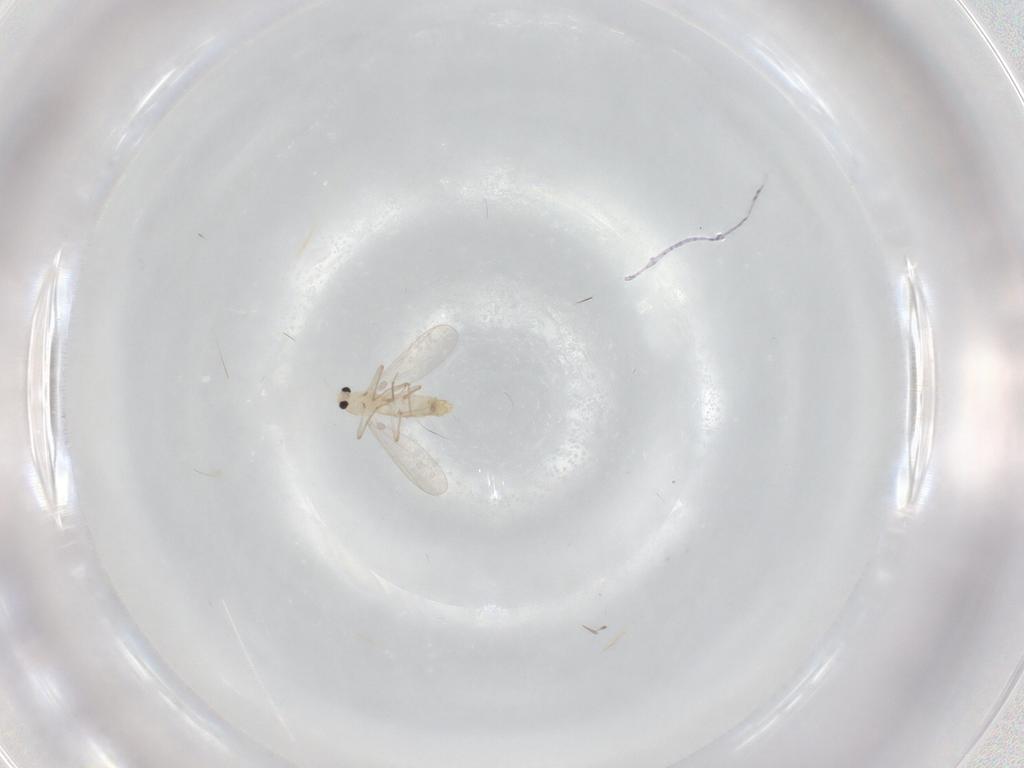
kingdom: Animalia
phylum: Arthropoda
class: Insecta
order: Diptera
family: Chironomidae
